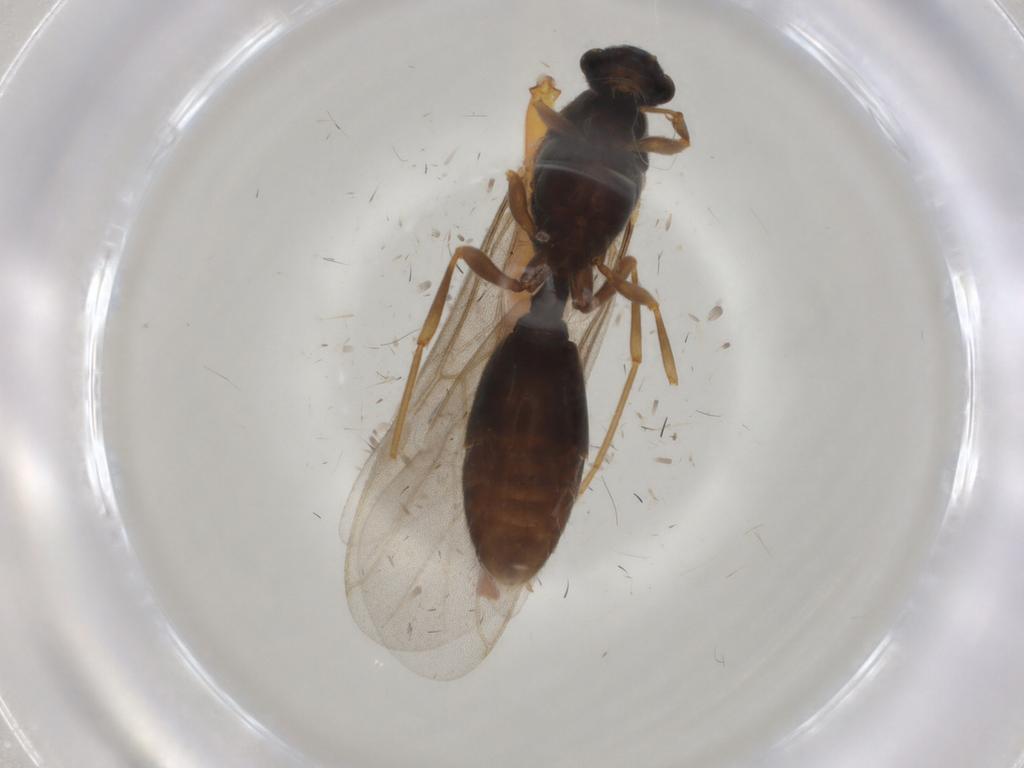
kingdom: Animalia
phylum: Arthropoda
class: Insecta
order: Hymenoptera
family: Formicidae
